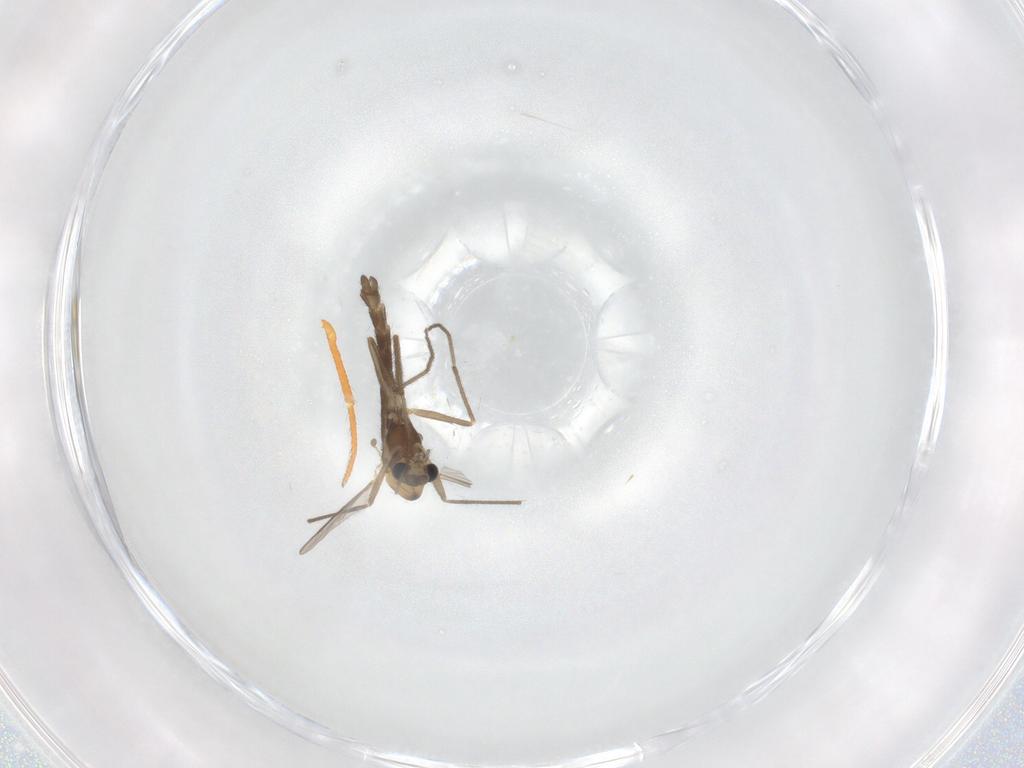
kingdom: Animalia
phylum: Arthropoda
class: Insecta
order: Diptera
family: Chironomidae
